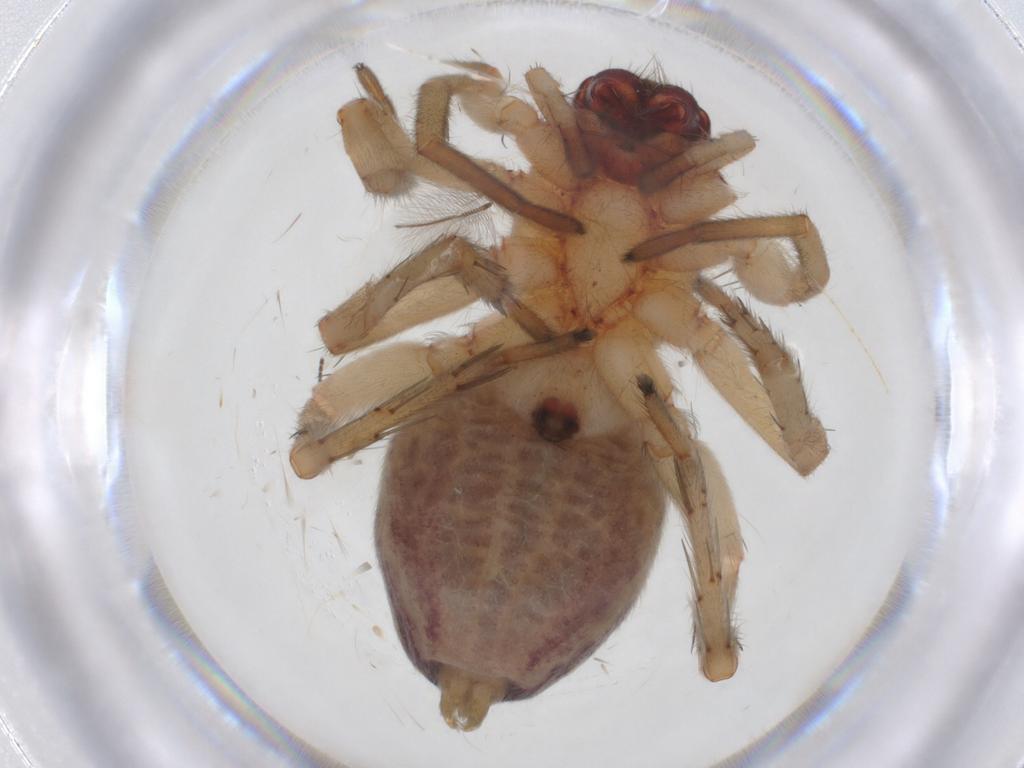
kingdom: Animalia
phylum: Arthropoda
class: Arachnida
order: Araneae
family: Clubionidae
